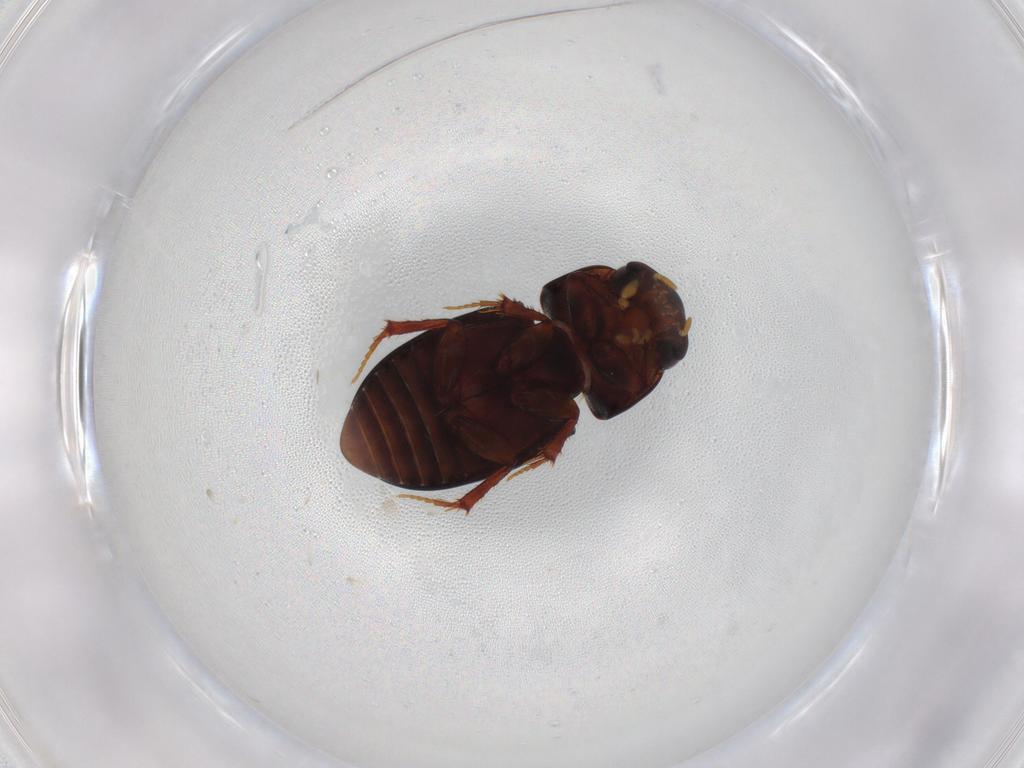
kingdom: Animalia
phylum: Arthropoda
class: Insecta
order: Coleoptera
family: Scarabaeidae
